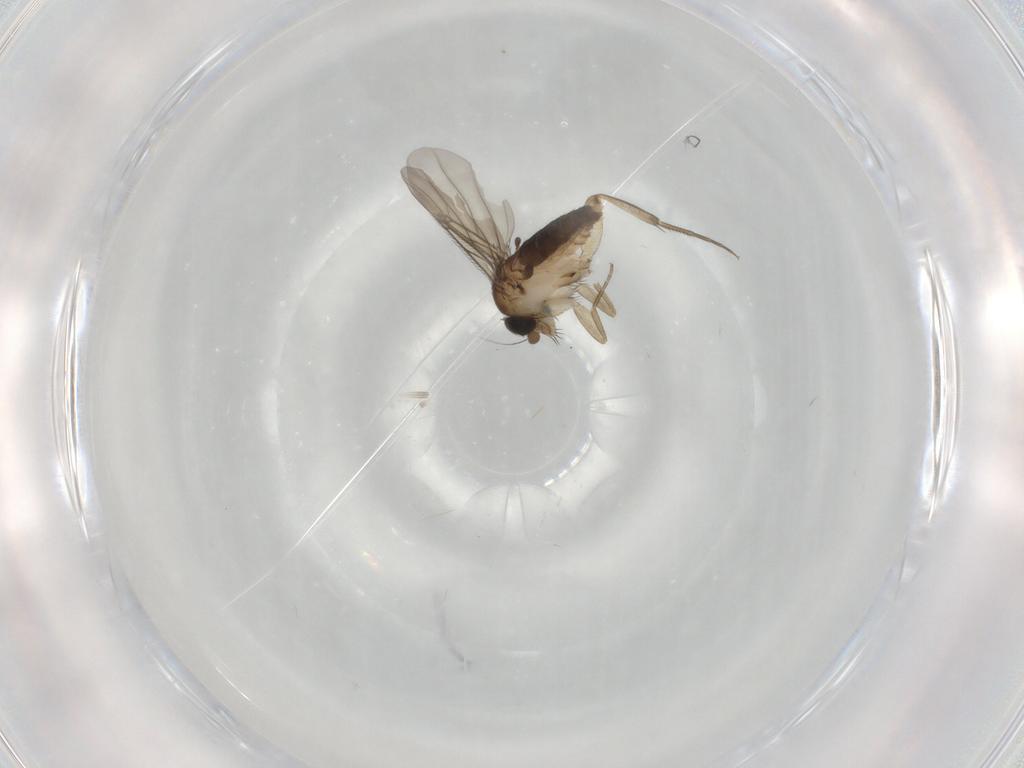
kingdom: Animalia
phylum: Arthropoda
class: Insecta
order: Diptera
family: Phoridae
